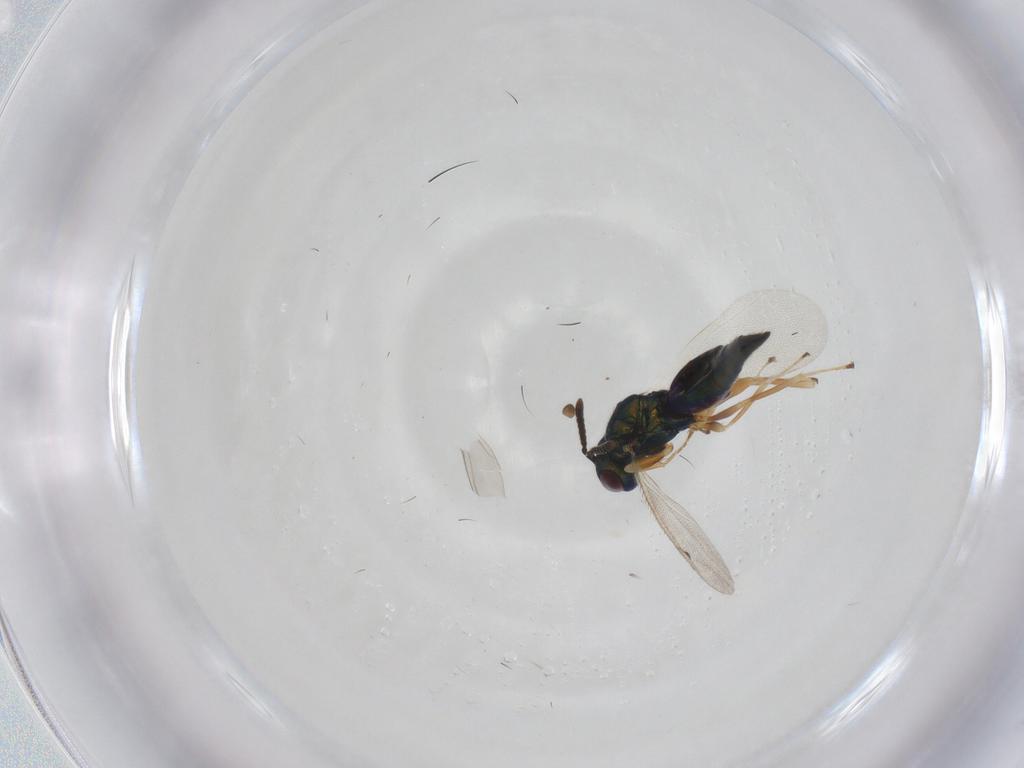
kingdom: Animalia
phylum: Arthropoda
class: Insecta
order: Hymenoptera
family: Pteromalidae
